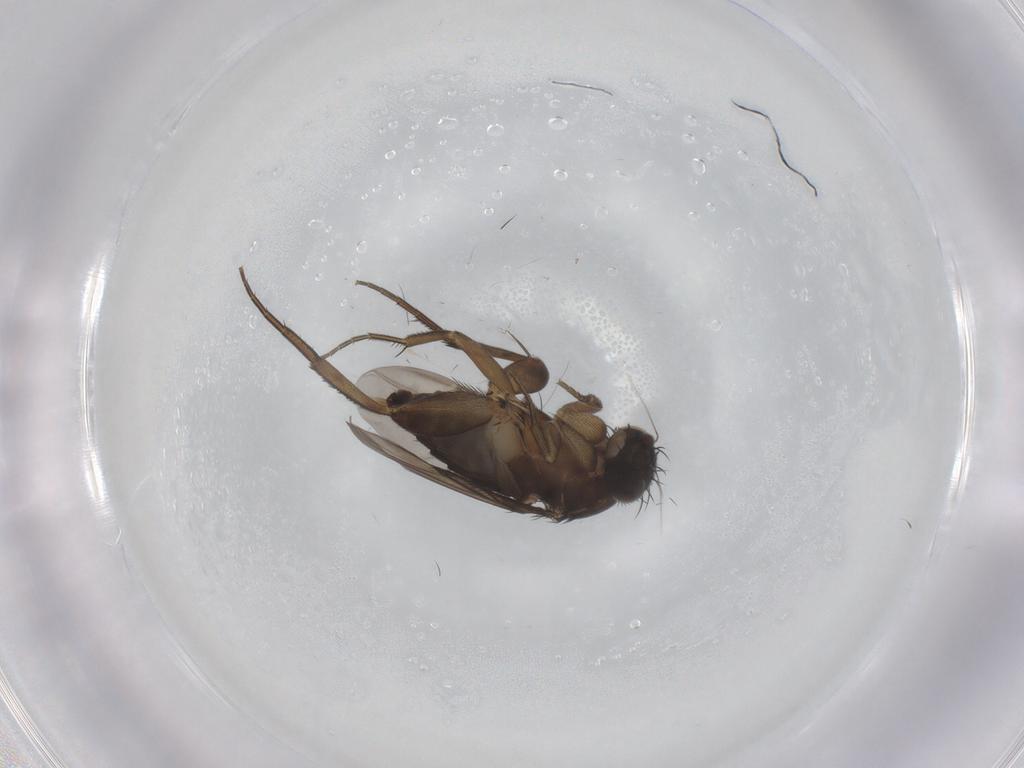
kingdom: Animalia
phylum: Arthropoda
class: Insecta
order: Diptera
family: Phoridae
